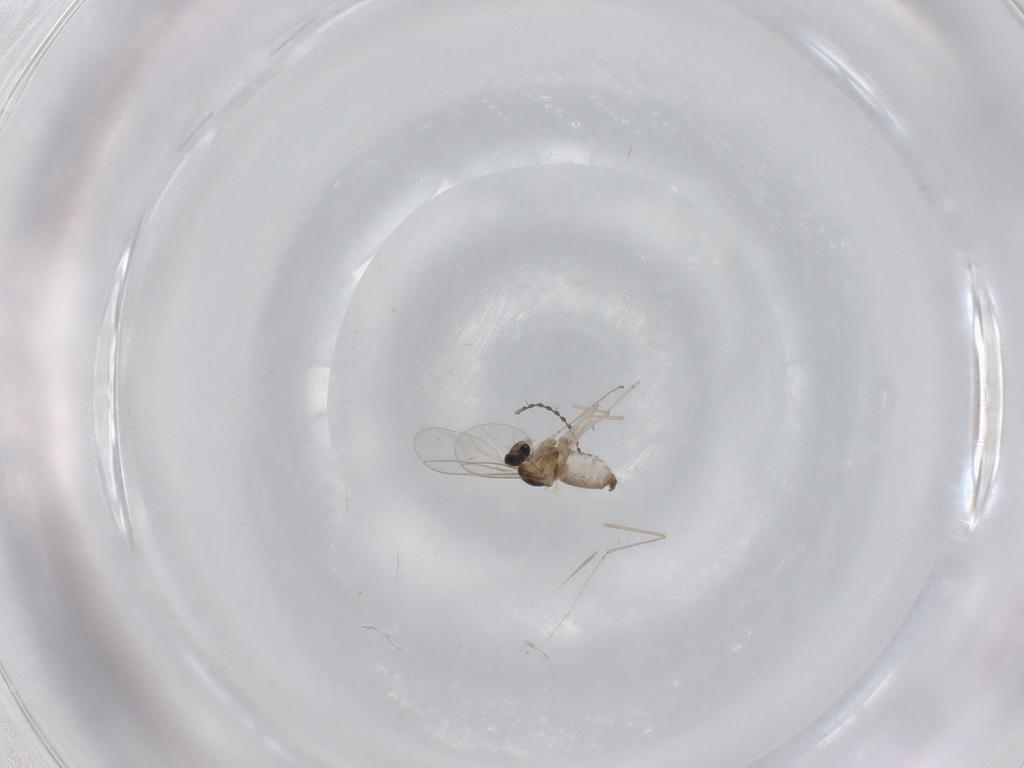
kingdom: Animalia
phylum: Arthropoda
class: Insecta
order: Diptera
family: Cecidomyiidae
